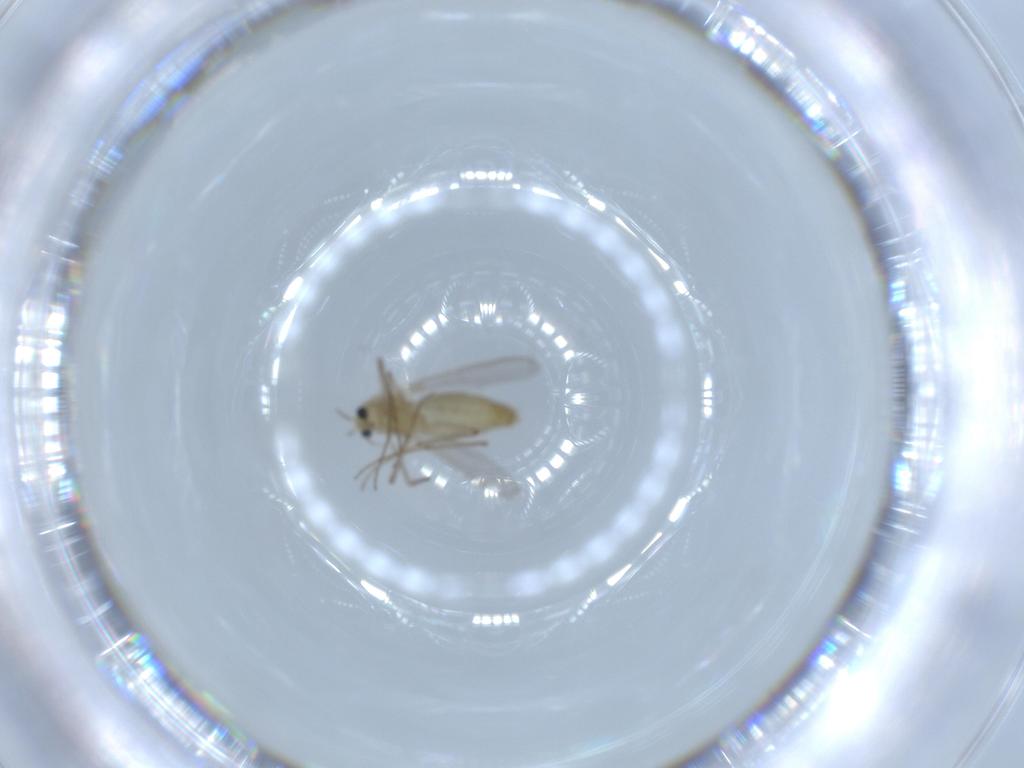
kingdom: Animalia
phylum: Arthropoda
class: Insecta
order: Diptera
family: Chironomidae
